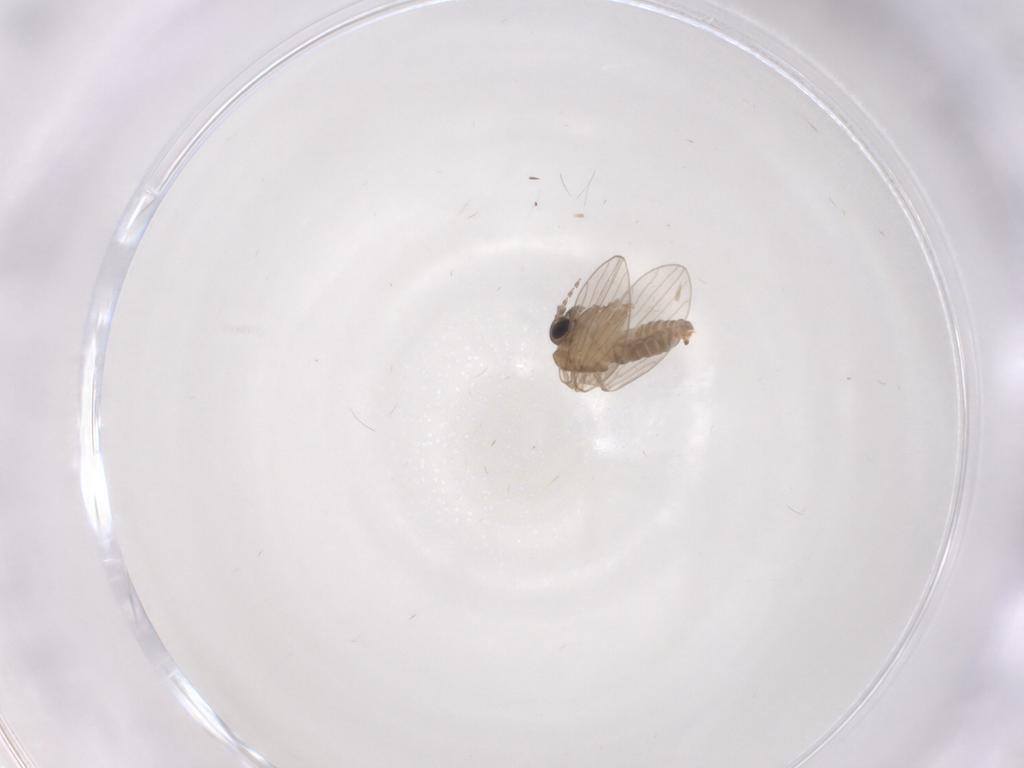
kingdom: Animalia
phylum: Arthropoda
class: Insecta
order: Diptera
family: Psychodidae
